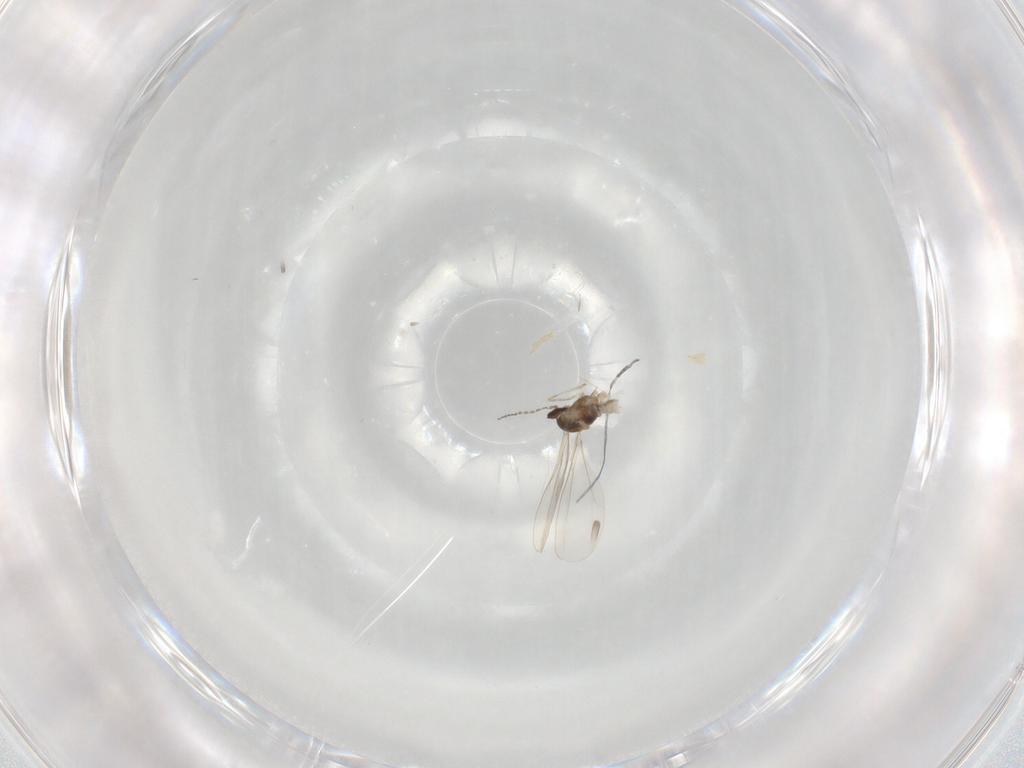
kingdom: Animalia
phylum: Arthropoda
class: Insecta
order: Diptera
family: Cecidomyiidae
